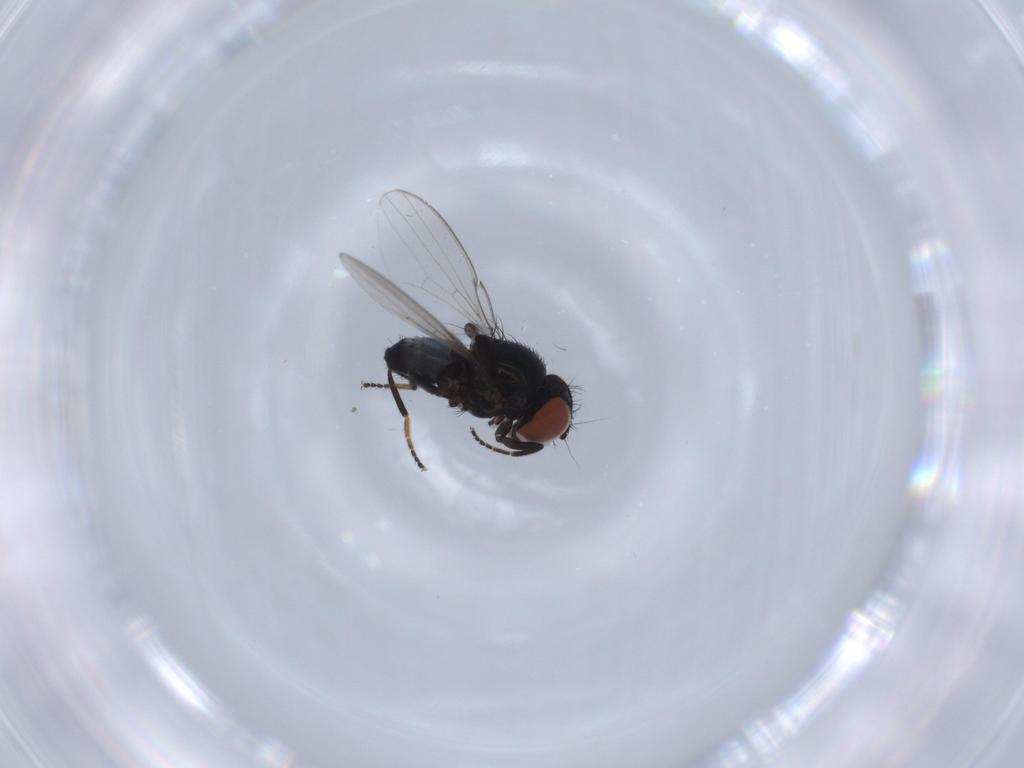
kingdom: Animalia
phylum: Arthropoda
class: Insecta
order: Diptera
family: Milichiidae
